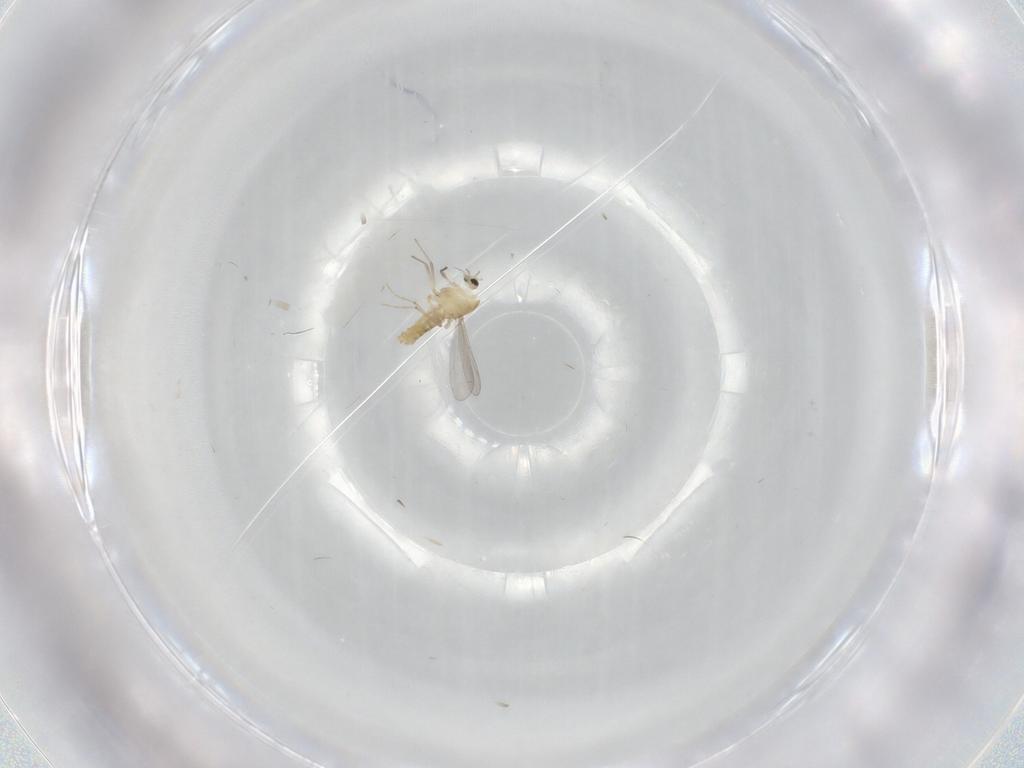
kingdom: Animalia
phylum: Arthropoda
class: Insecta
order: Diptera
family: Chironomidae
